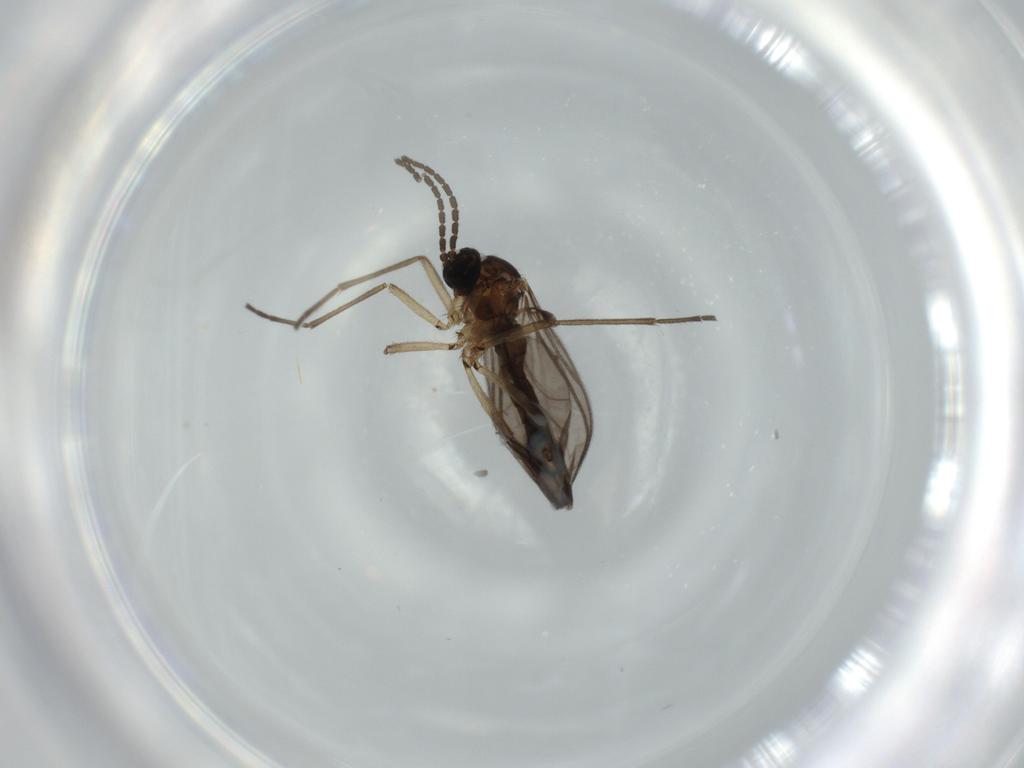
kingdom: Animalia
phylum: Arthropoda
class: Insecta
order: Diptera
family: Sciaridae
